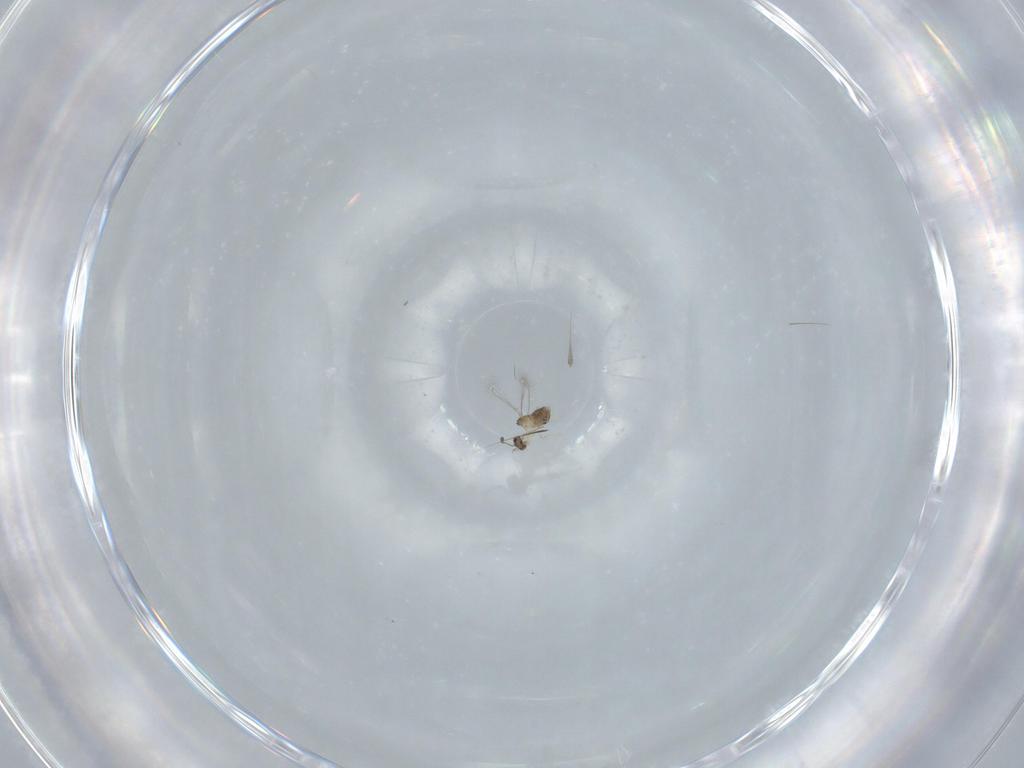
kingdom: Animalia
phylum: Arthropoda
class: Insecta
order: Hymenoptera
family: Mymaridae
